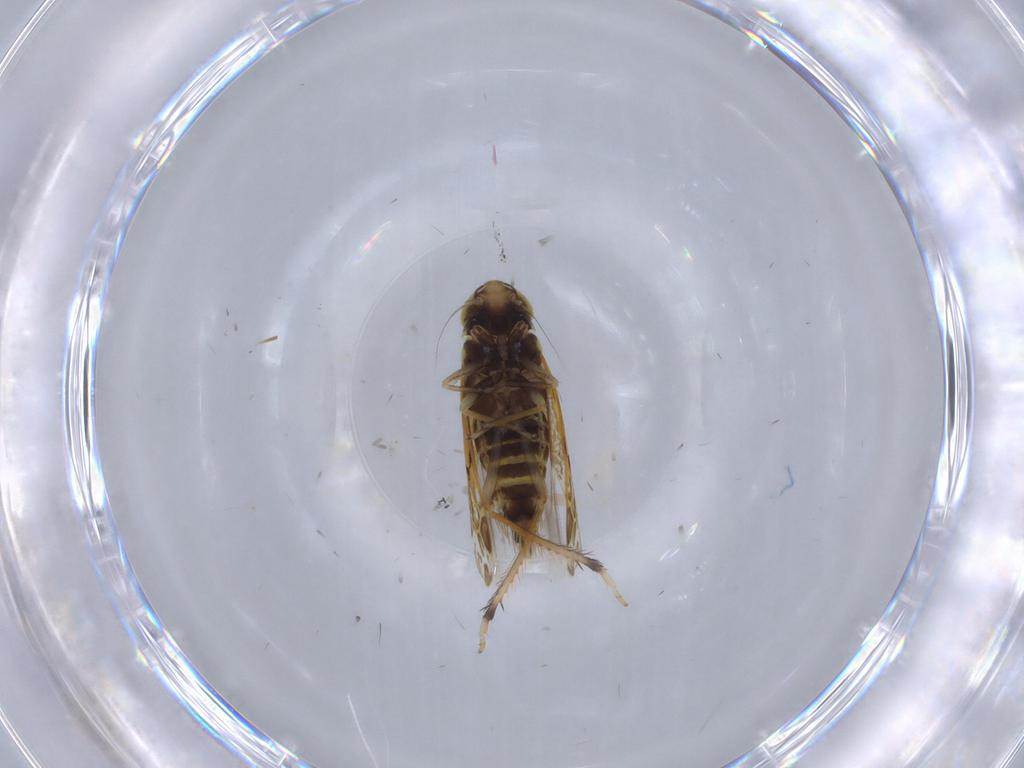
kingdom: Animalia
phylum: Arthropoda
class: Insecta
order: Hemiptera
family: Cicadellidae
